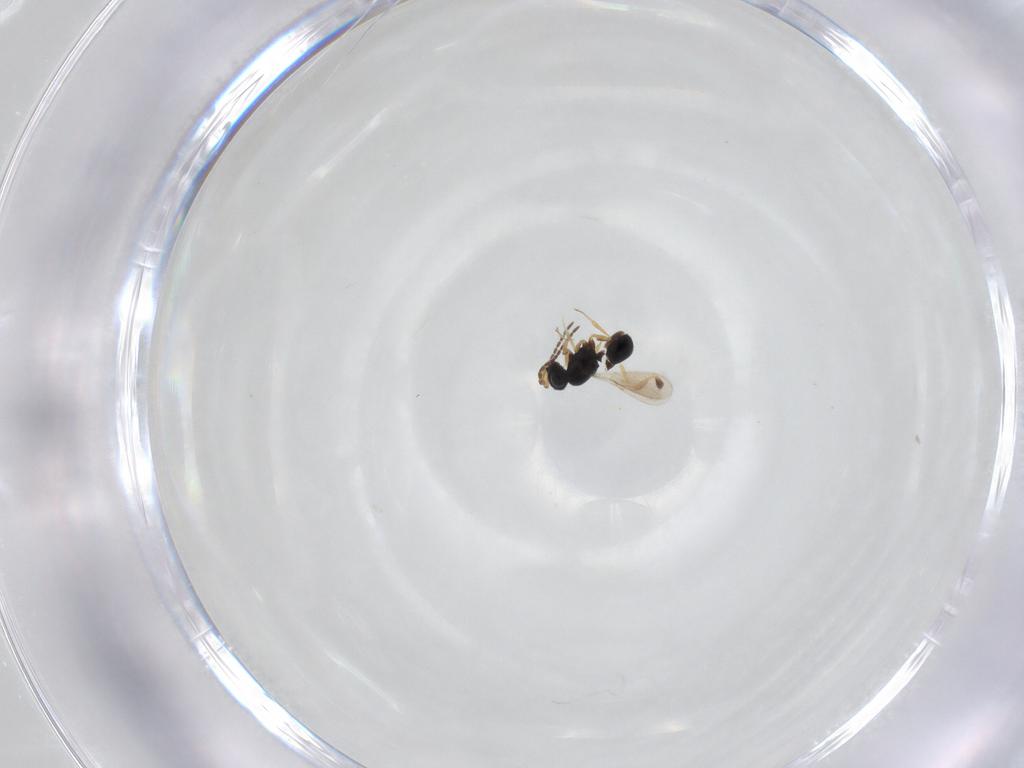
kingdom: Animalia
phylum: Arthropoda
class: Insecta
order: Hymenoptera
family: Scelionidae
